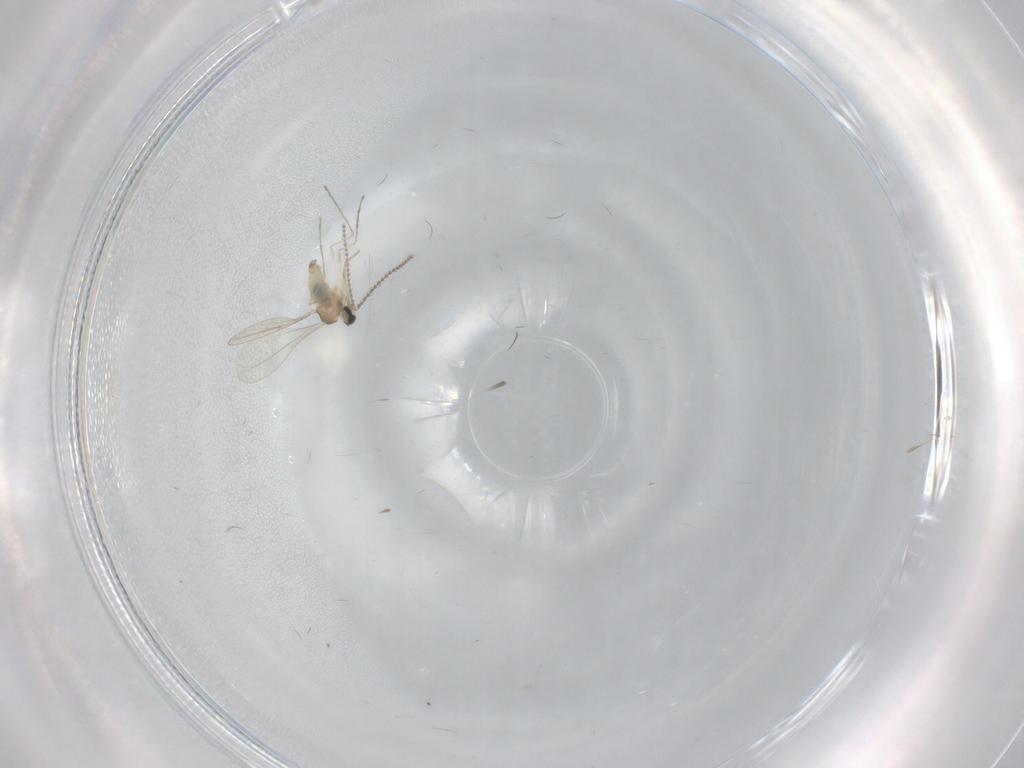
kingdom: Animalia
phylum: Arthropoda
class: Insecta
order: Diptera
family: Cecidomyiidae
